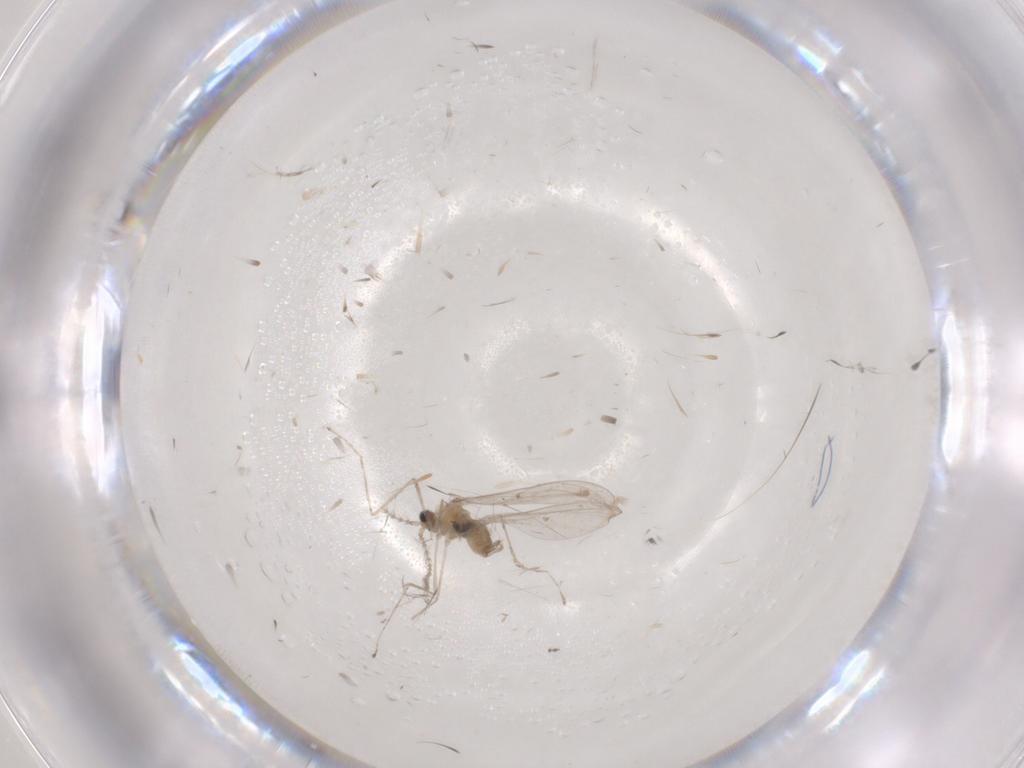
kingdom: Animalia
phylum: Arthropoda
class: Insecta
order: Diptera
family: Cecidomyiidae
